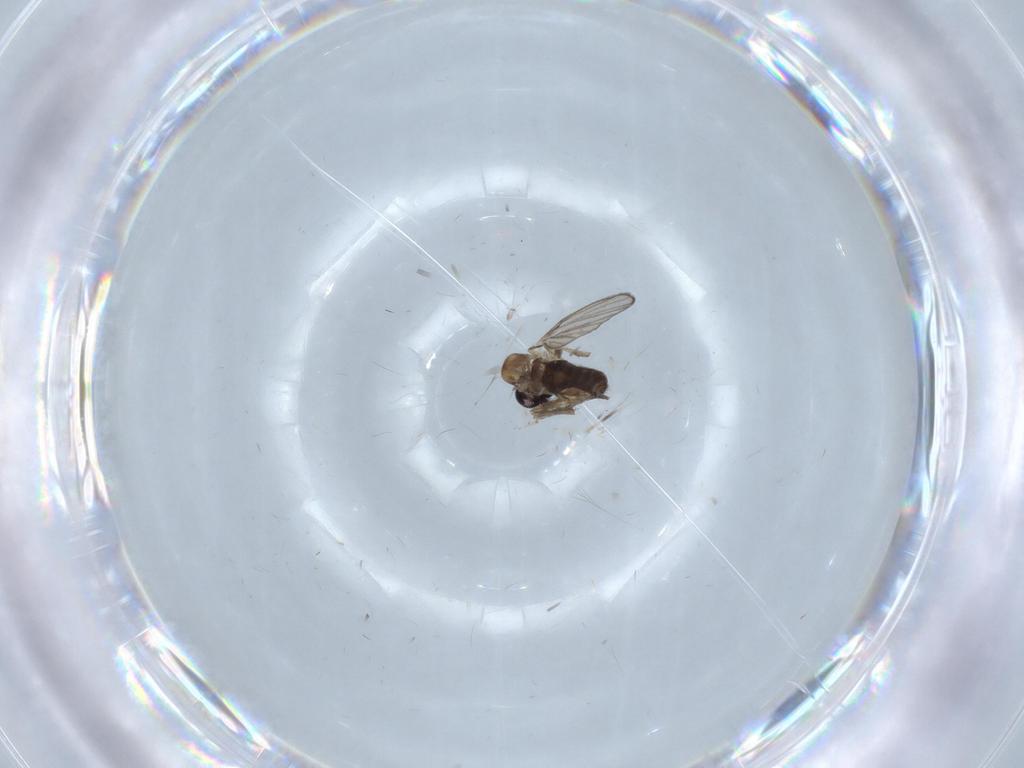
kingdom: Animalia
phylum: Arthropoda
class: Insecta
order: Diptera
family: Cecidomyiidae
